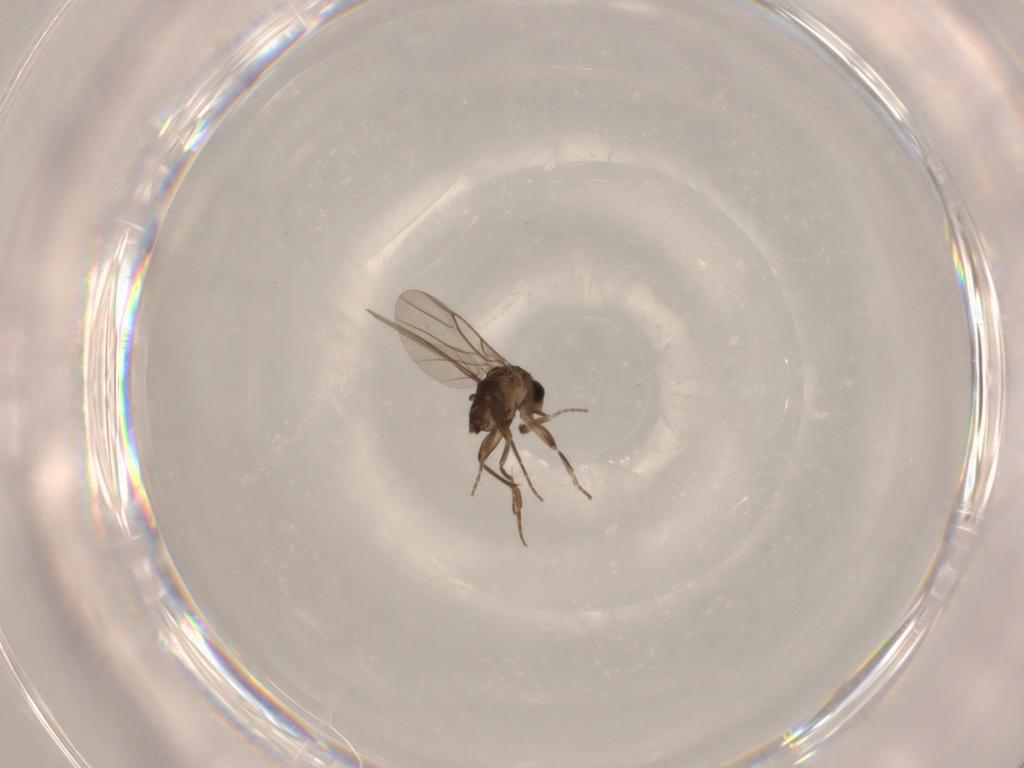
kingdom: Animalia
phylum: Arthropoda
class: Insecta
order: Diptera
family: Phoridae
